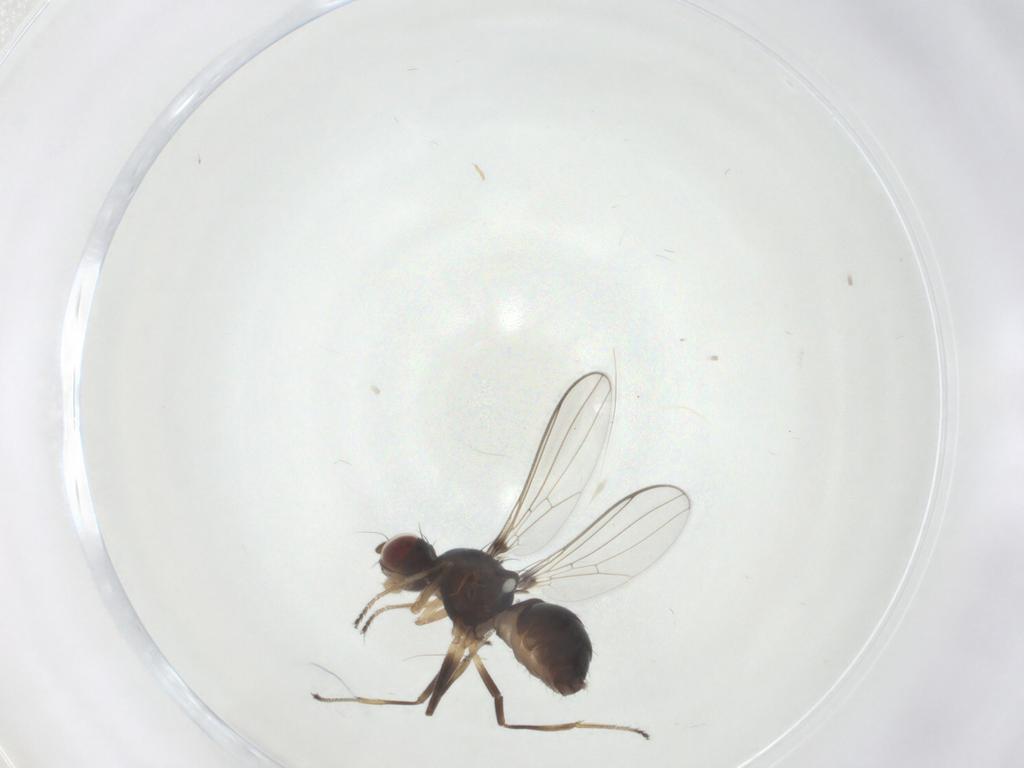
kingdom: Animalia
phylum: Arthropoda
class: Insecta
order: Diptera
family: Sepsidae
